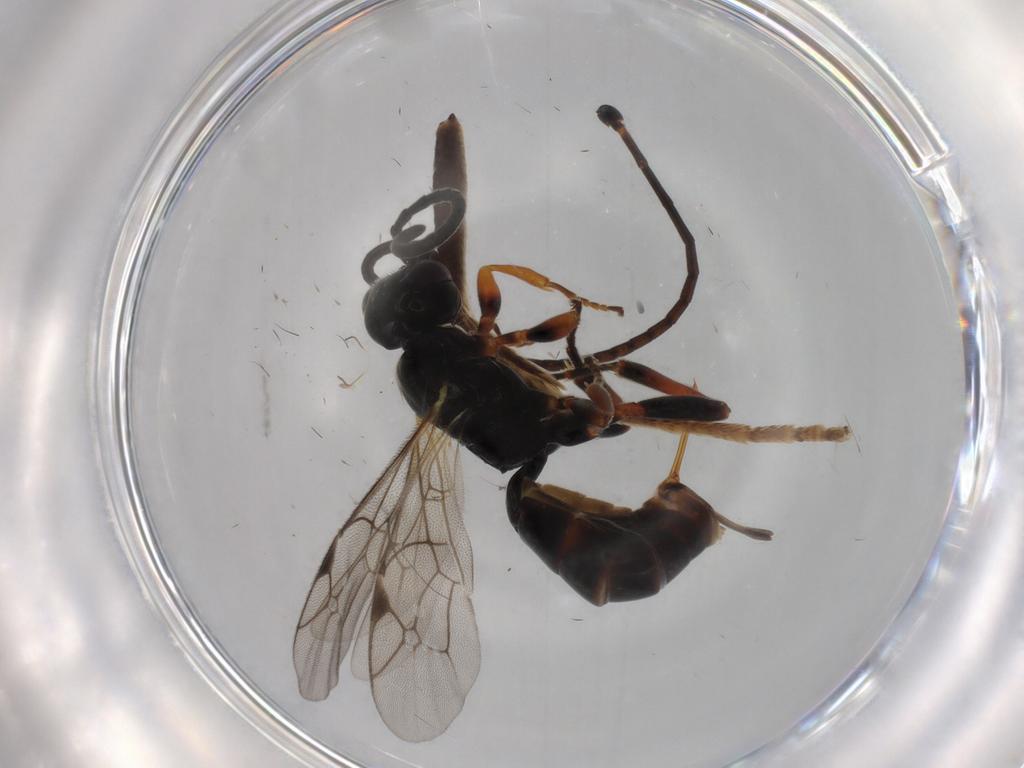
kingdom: Animalia
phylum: Arthropoda
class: Insecta
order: Hymenoptera
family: Ichneumonidae
